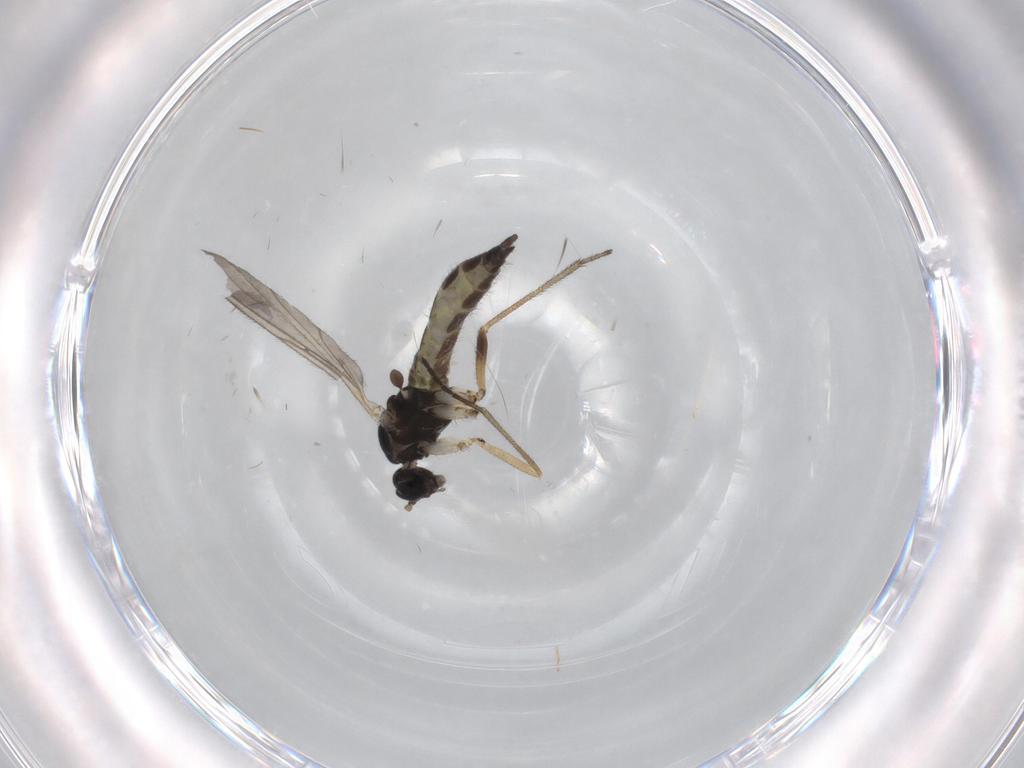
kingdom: Animalia
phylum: Arthropoda
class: Insecta
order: Diptera
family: Sciaridae
